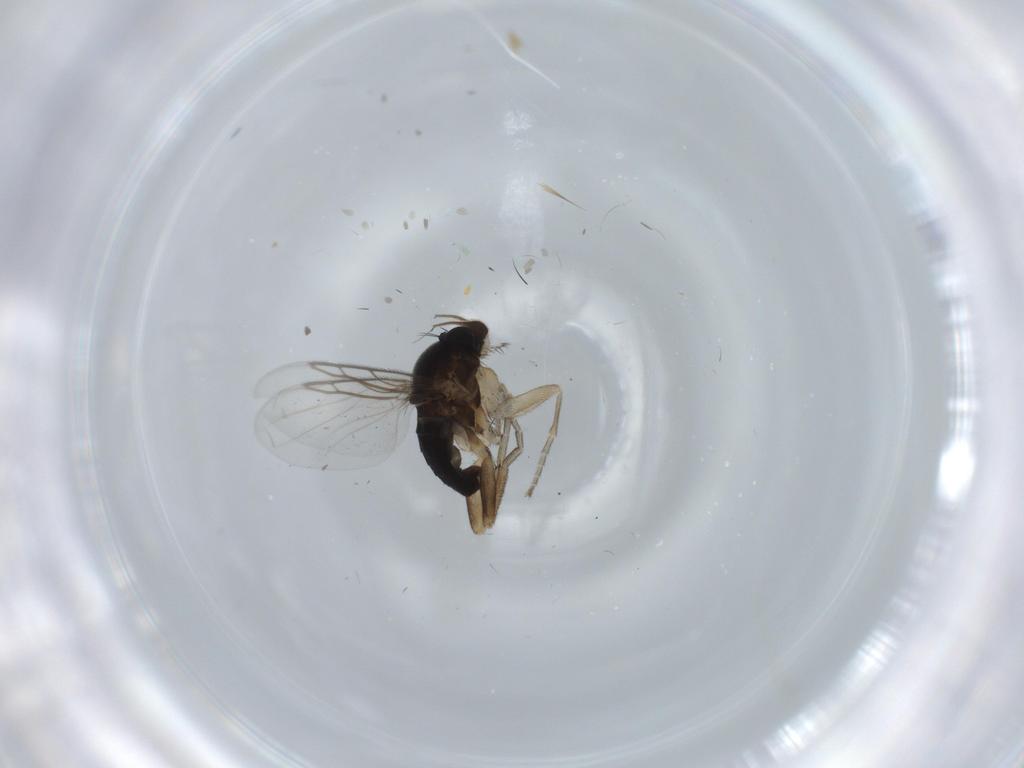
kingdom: Animalia
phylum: Arthropoda
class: Insecta
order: Diptera
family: Phoridae
